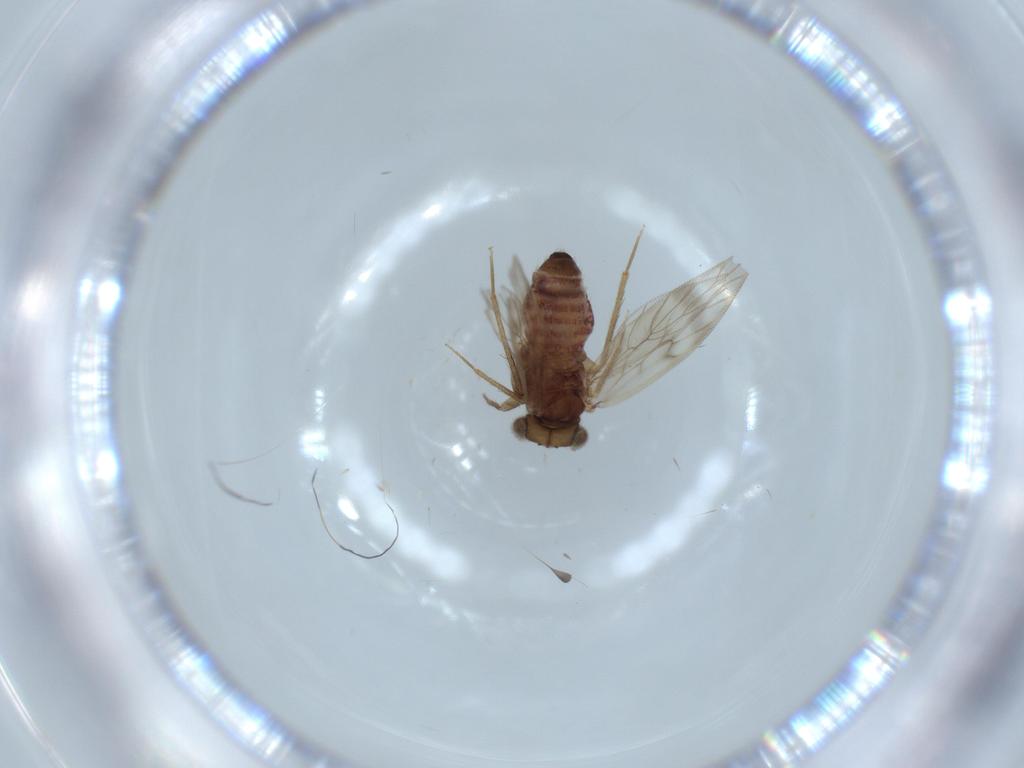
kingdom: Animalia
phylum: Arthropoda
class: Insecta
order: Psocodea
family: Lepidopsocidae
